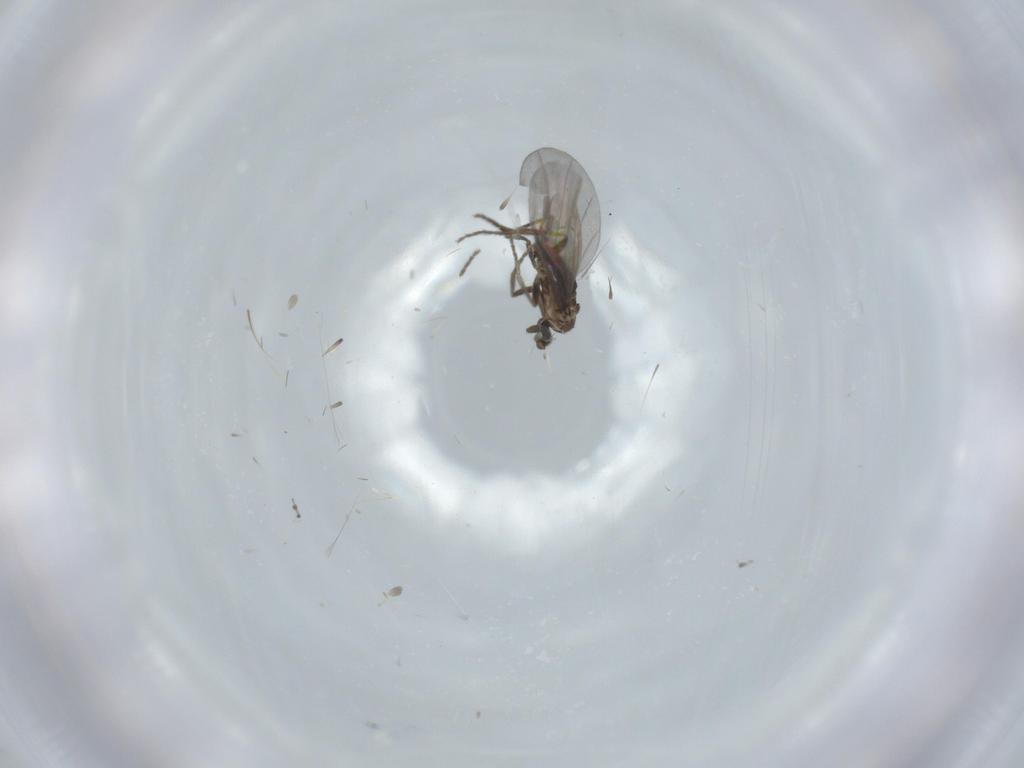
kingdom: Animalia
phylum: Arthropoda
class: Insecta
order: Diptera
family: Phoridae
